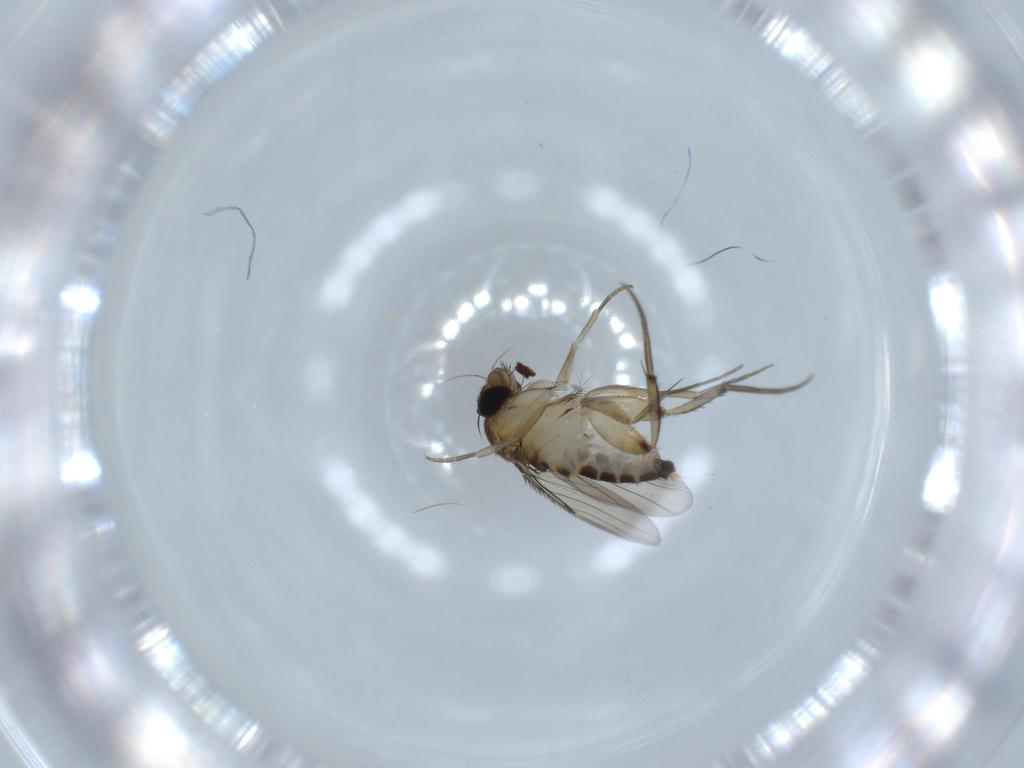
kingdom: Animalia
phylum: Arthropoda
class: Insecta
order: Diptera
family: Phoridae
